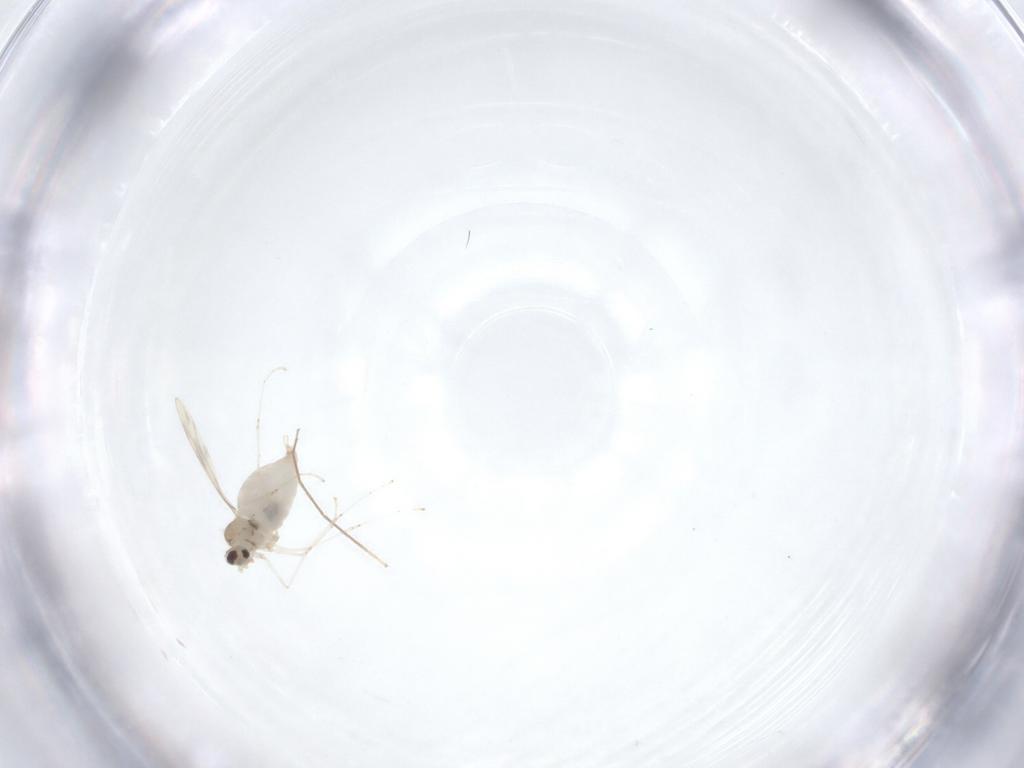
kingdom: Animalia
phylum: Arthropoda
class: Insecta
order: Diptera
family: Cecidomyiidae
